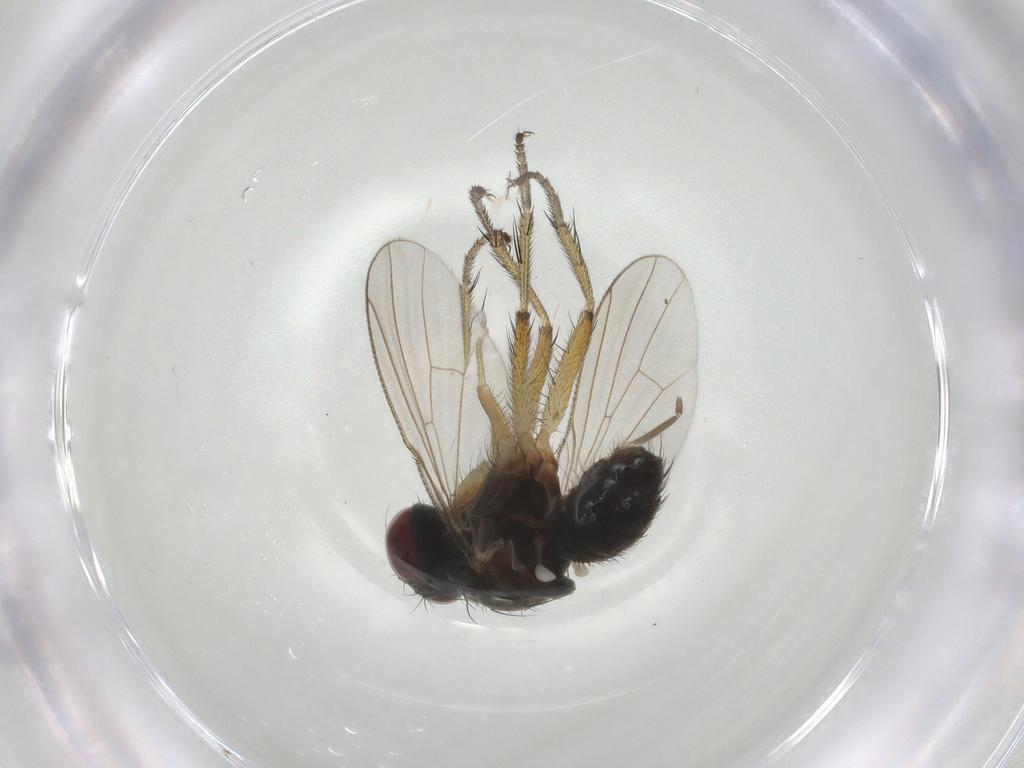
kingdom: Animalia
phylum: Arthropoda
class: Insecta
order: Diptera
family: Muscidae
